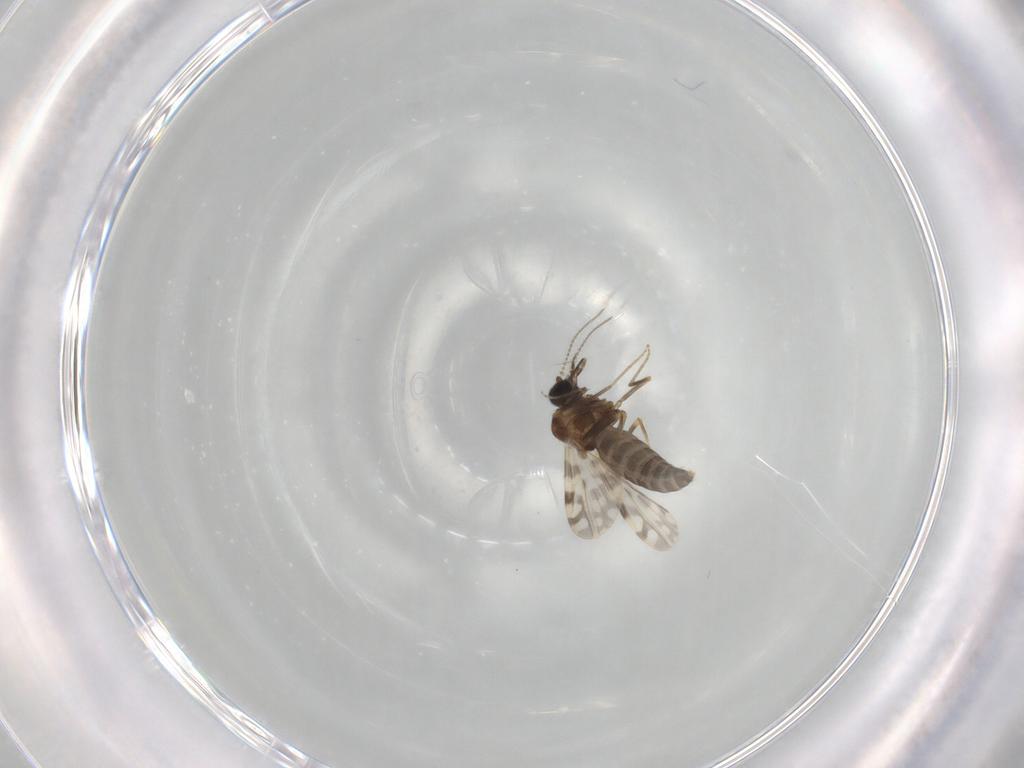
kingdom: Animalia
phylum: Arthropoda
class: Insecta
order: Diptera
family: Ceratopogonidae
